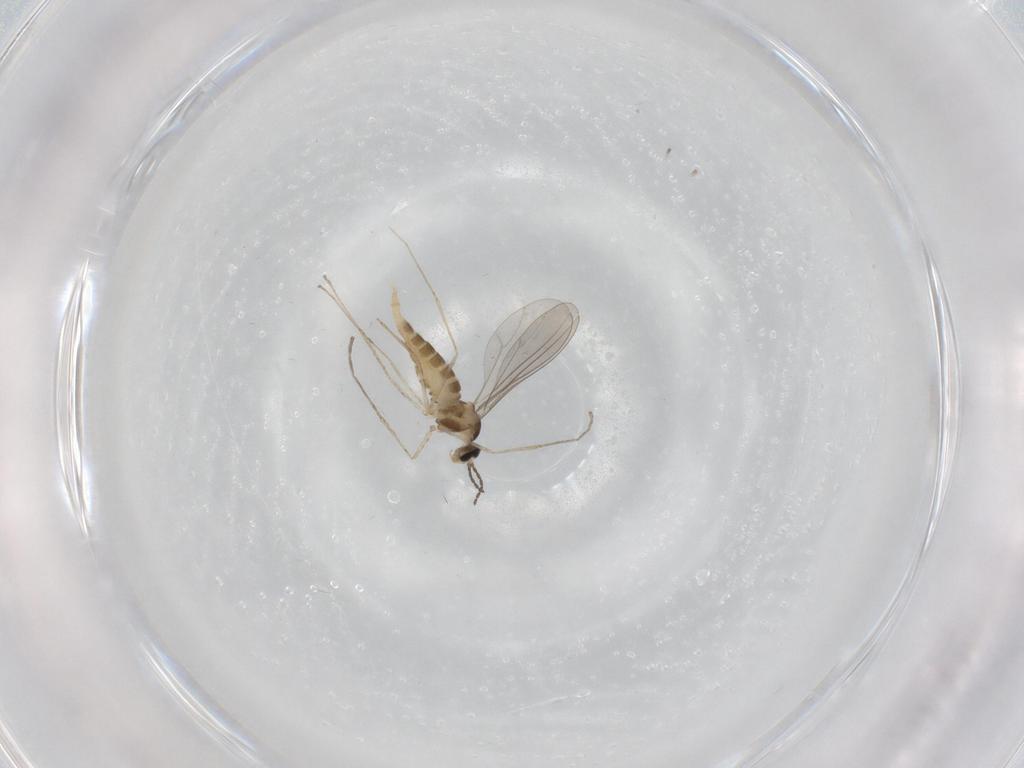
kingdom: Animalia
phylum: Arthropoda
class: Insecta
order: Diptera
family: Cecidomyiidae
